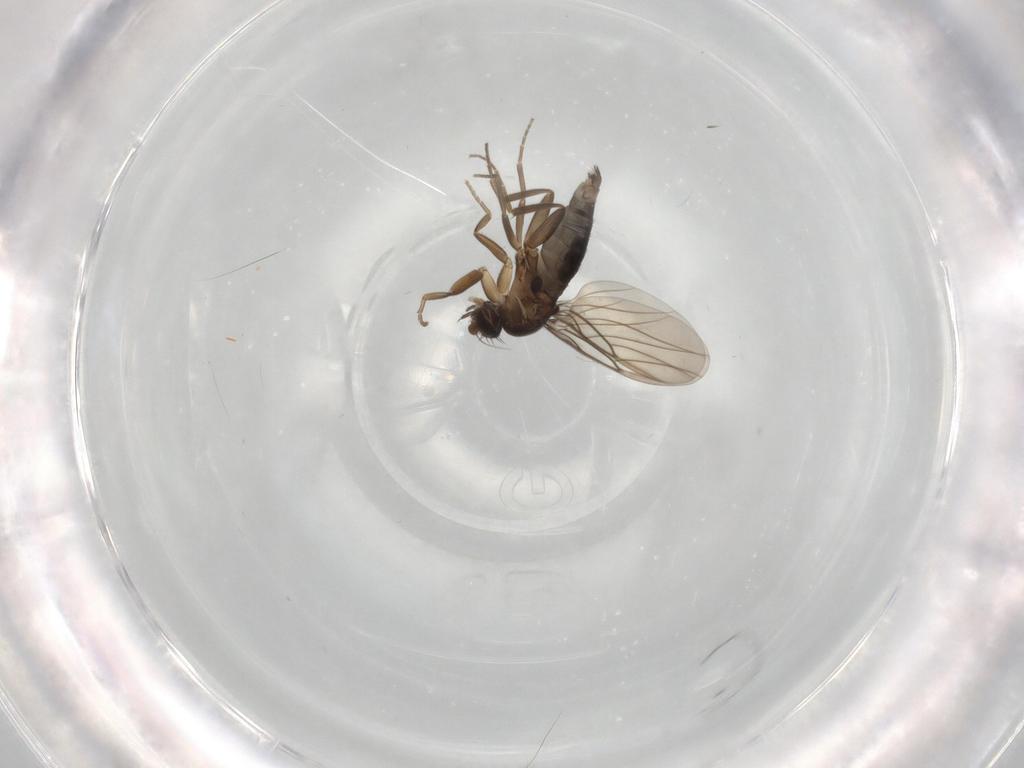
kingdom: Animalia
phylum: Arthropoda
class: Insecta
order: Diptera
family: Phoridae
